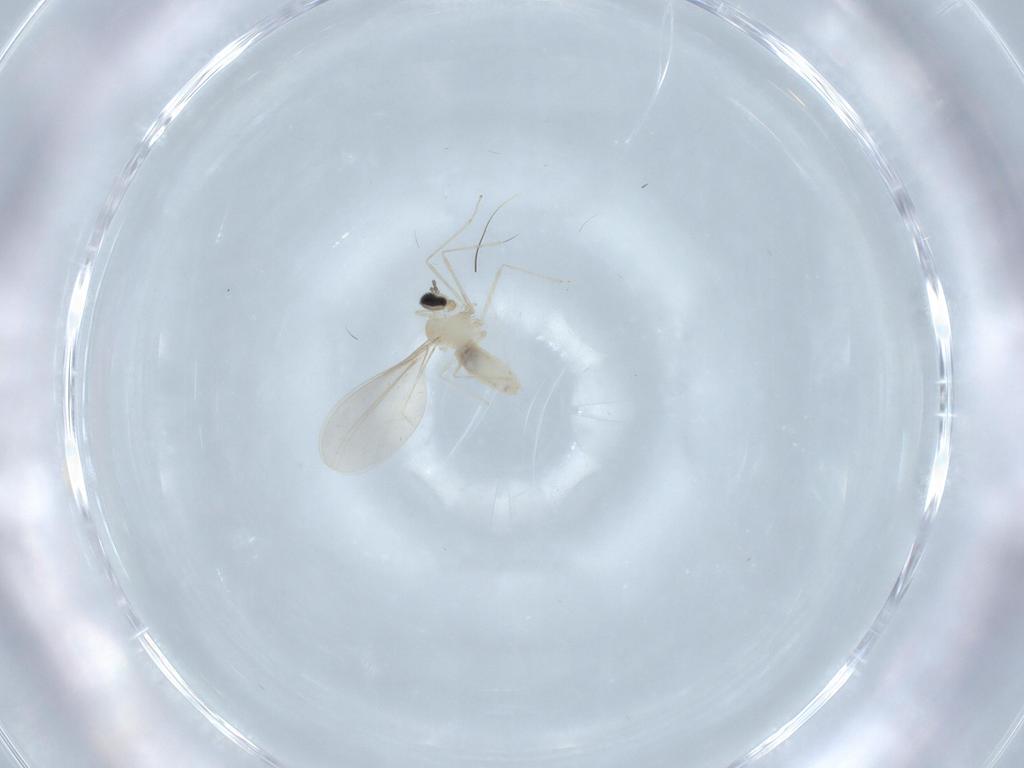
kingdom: Animalia
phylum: Arthropoda
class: Insecta
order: Diptera
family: Cecidomyiidae
